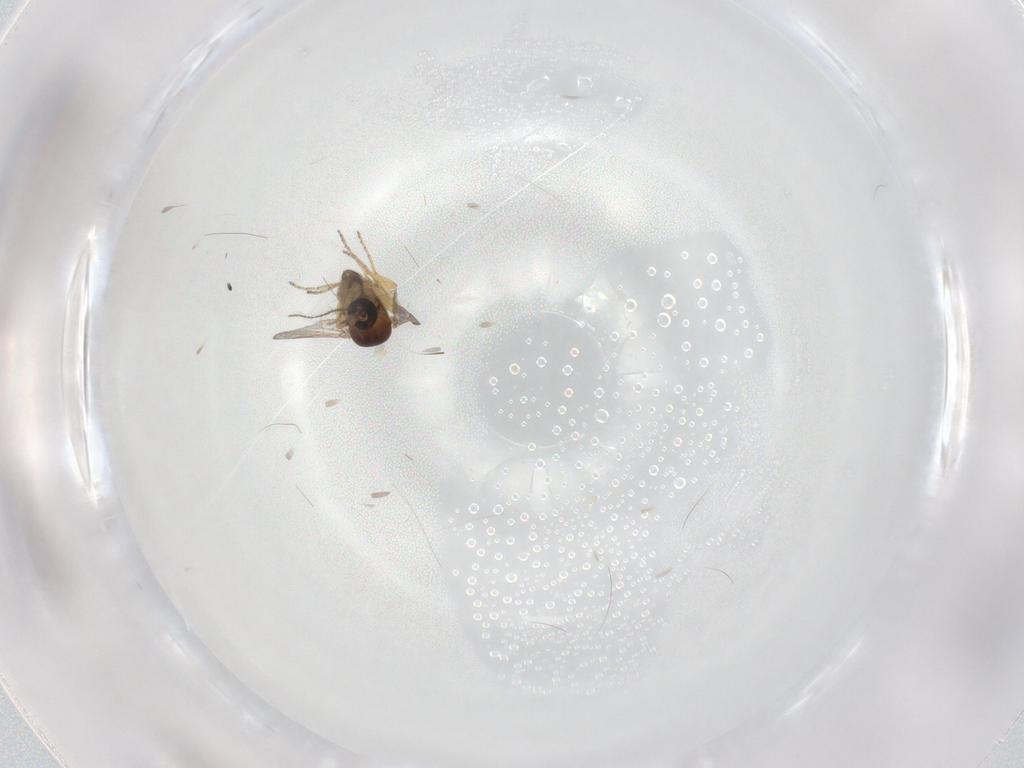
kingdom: Animalia
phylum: Arthropoda
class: Insecta
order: Diptera
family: Ceratopogonidae
